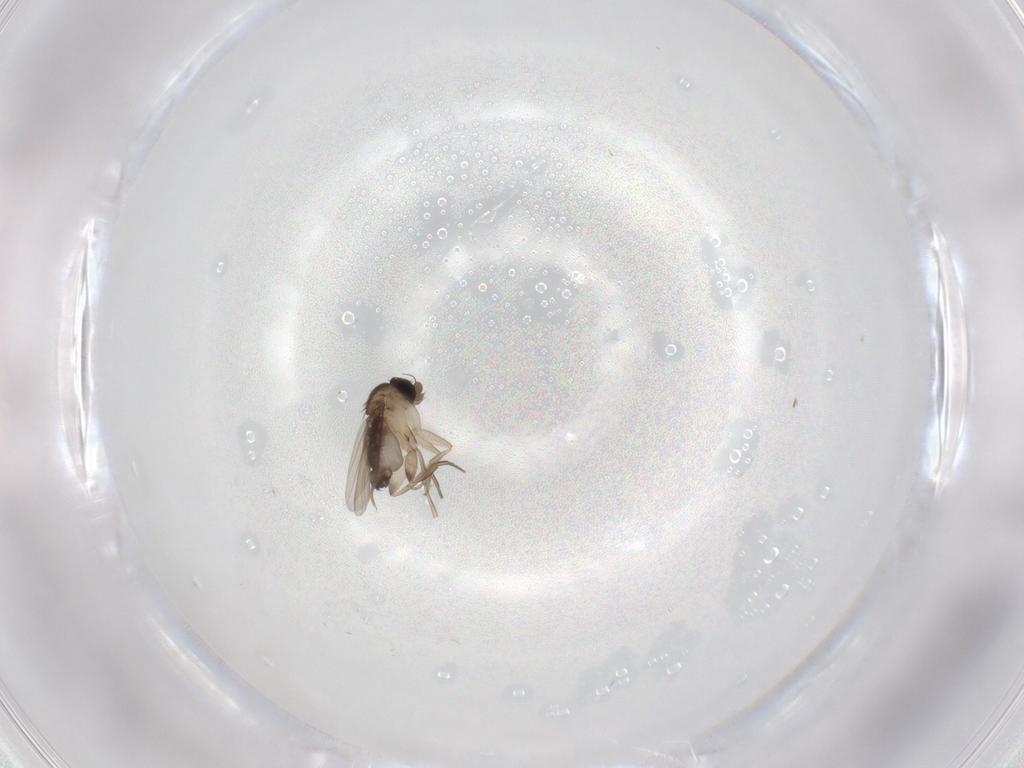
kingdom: Animalia
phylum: Arthropoda
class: Insecta
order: Diptera
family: Phoridae
